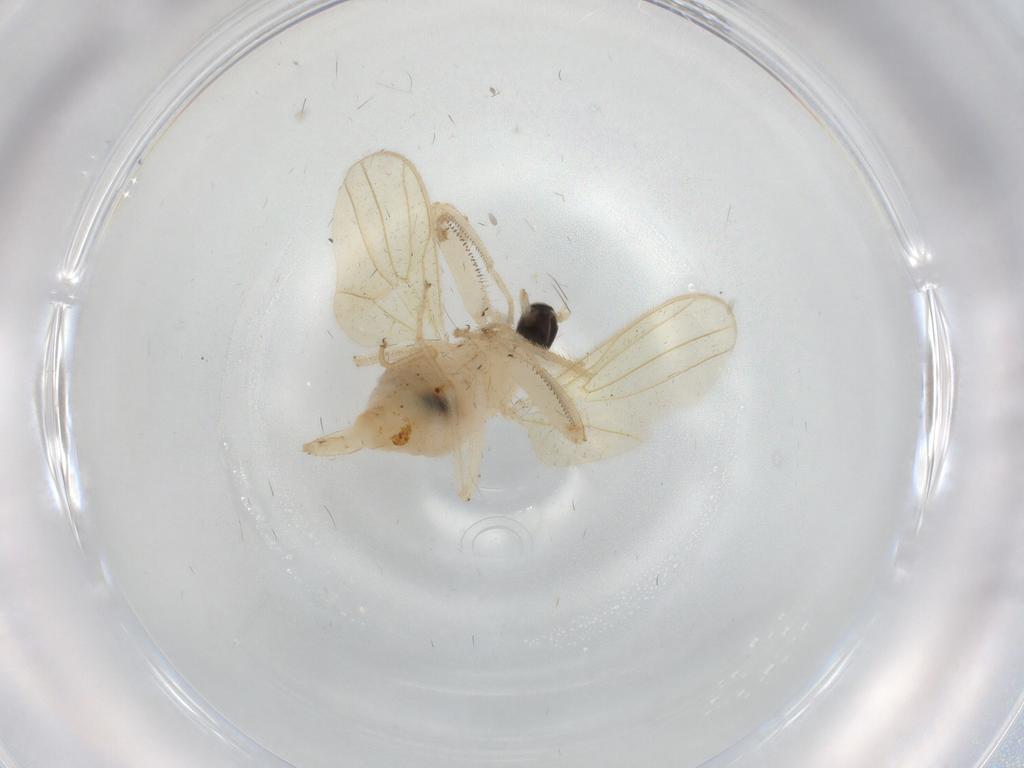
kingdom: Animalia
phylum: Arthropoda
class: Insecta
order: Diptera
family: Hybotidae
